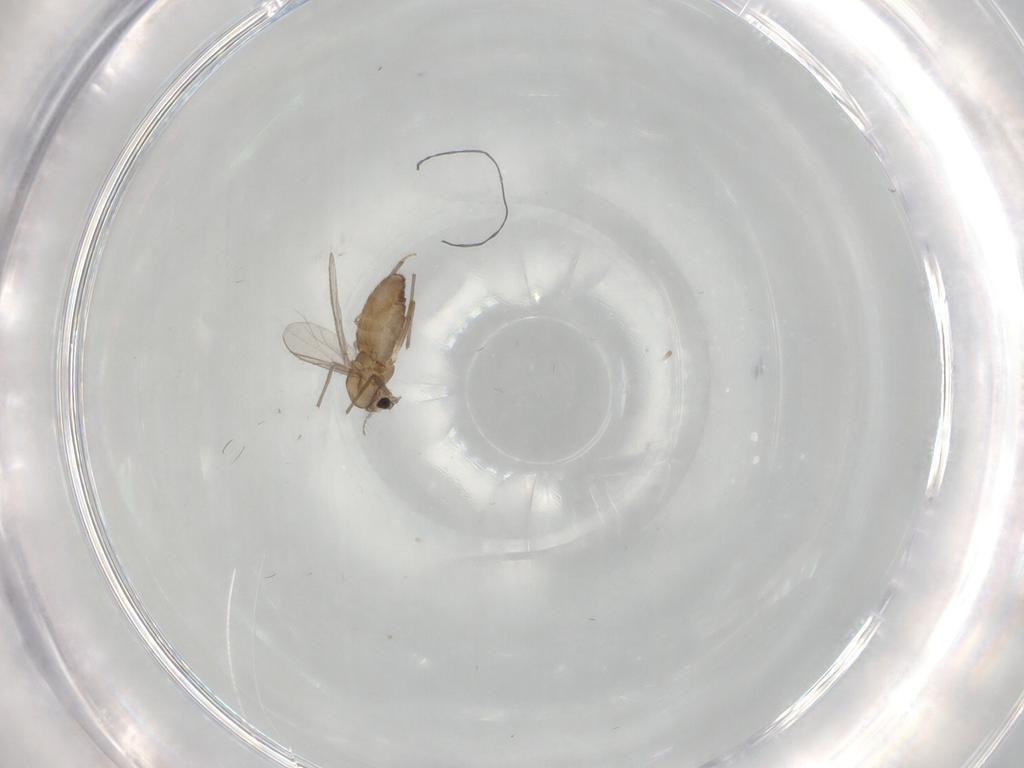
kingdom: Animalia
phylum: Arthropoda
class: Insecta
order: Diptera
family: Chironomidae
